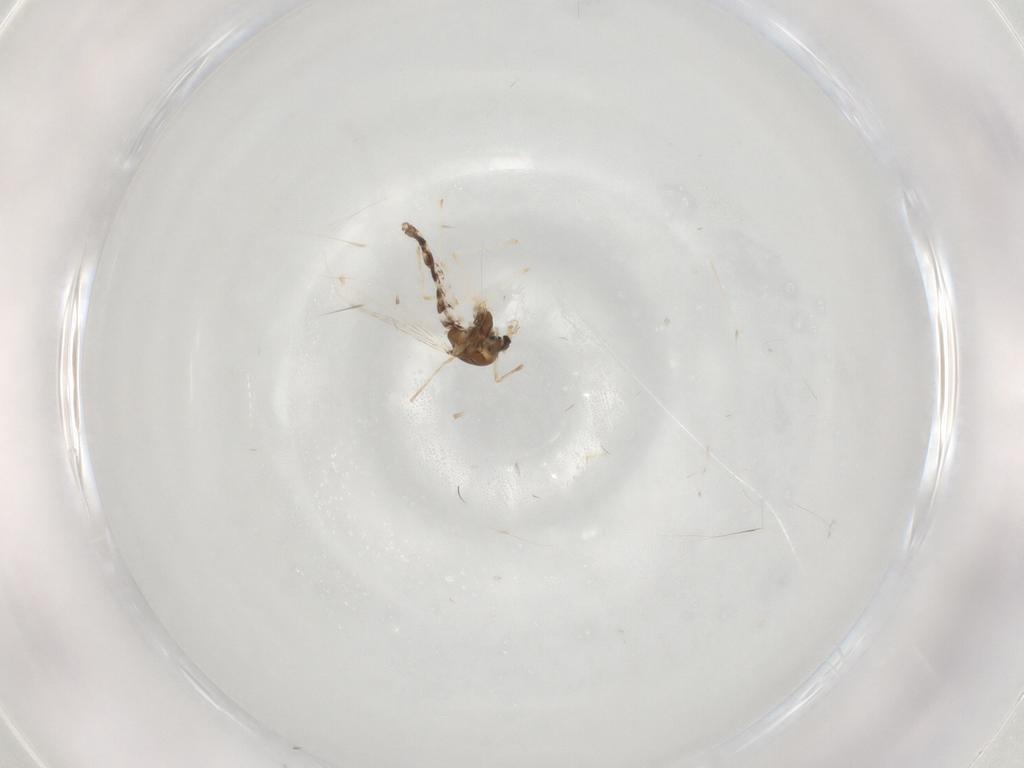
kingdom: Animalia
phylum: Arthropoda
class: Insecta
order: Diptera
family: Chironomidae
